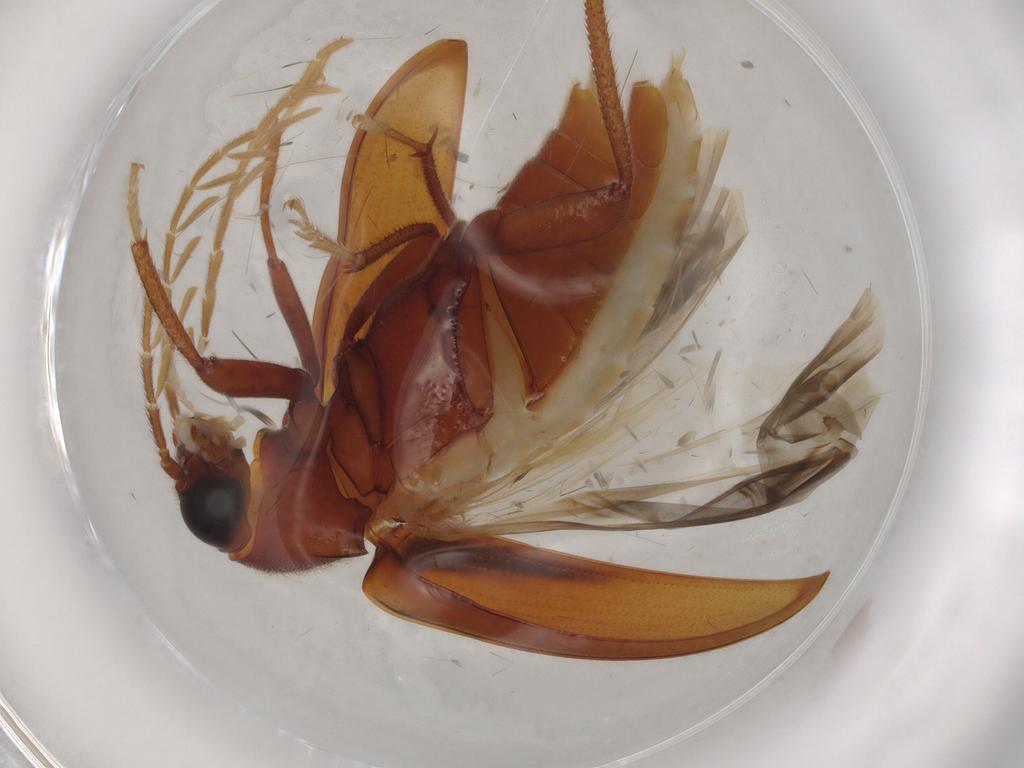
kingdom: Animalia
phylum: Arthropoda
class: Insecta
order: Coleoptera
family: Ptilodactylidae
